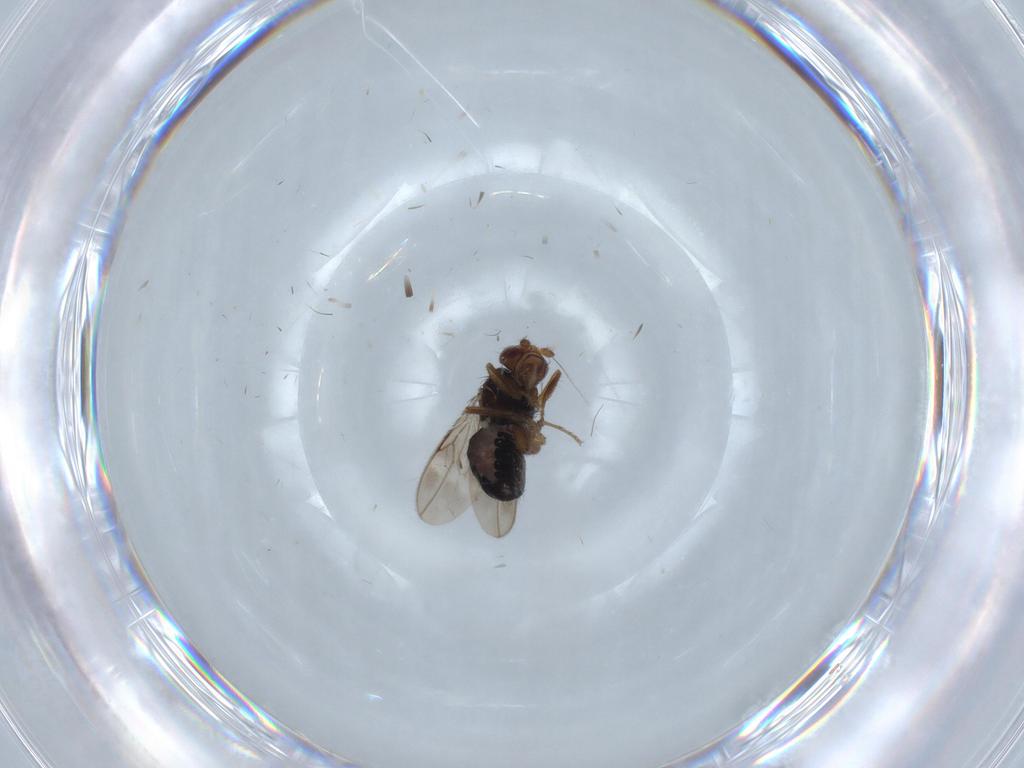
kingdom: Animalia
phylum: Arthropoda
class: Insecta
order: Diptera
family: Sphaeroceridae
